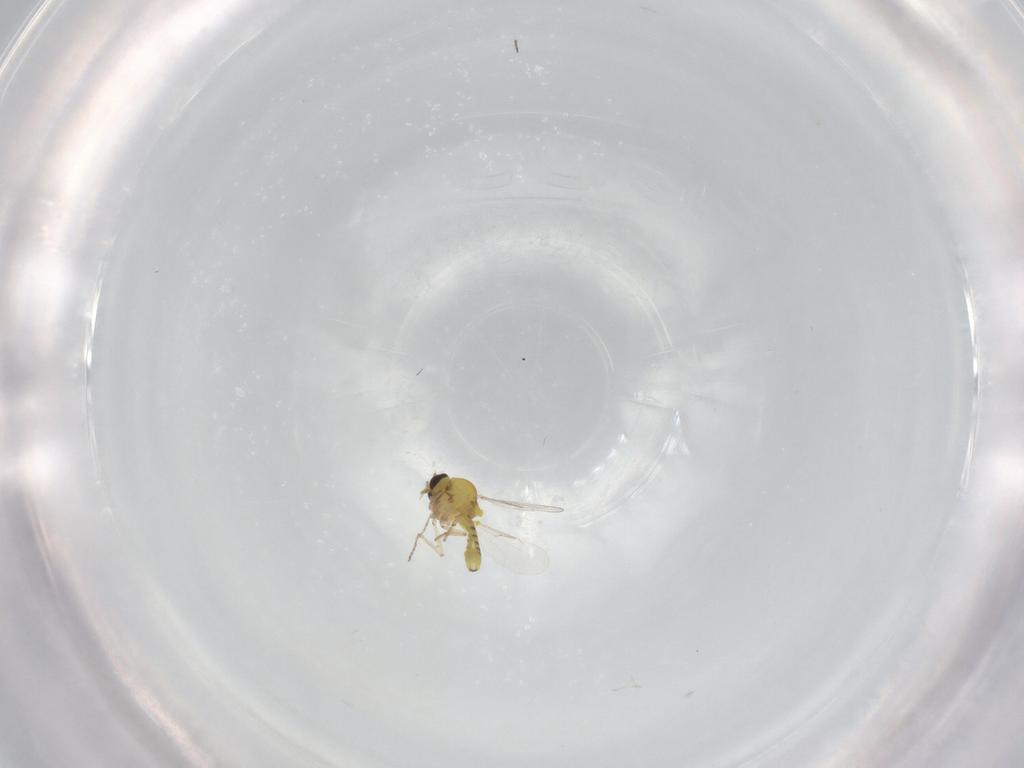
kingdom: Animalia
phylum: Arthropoda
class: Insecta
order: Diptera
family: Ceratopogonidae
